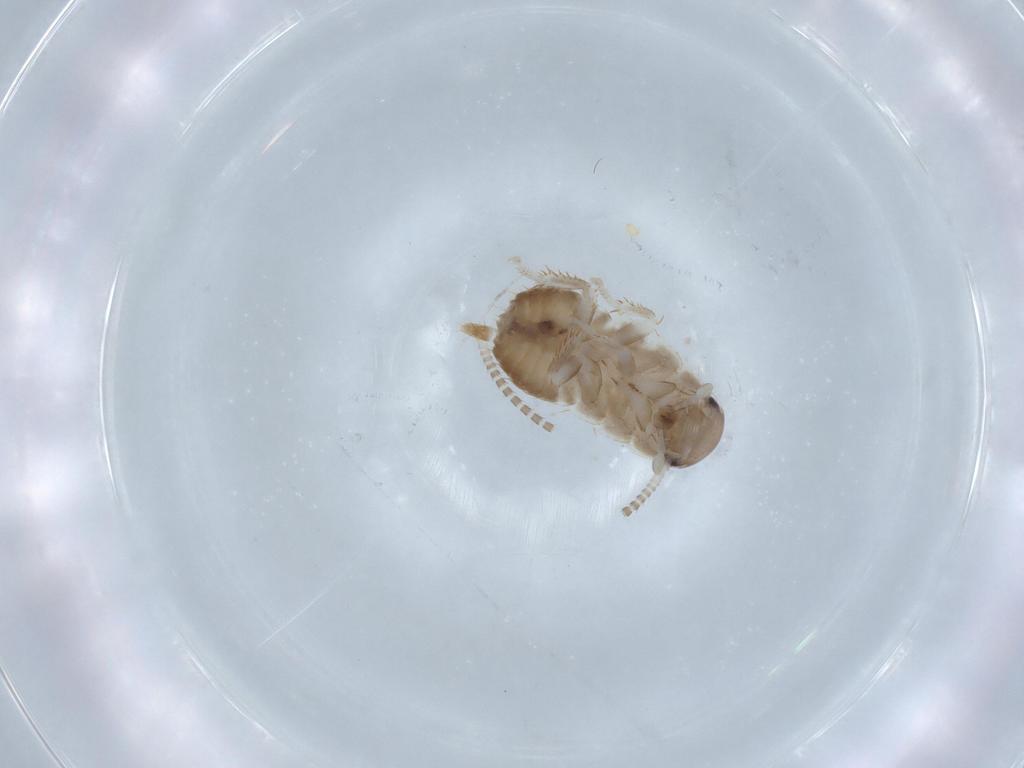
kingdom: Animalia
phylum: Arthropoda
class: Insecta
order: Blattodea
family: Ectobiidae
